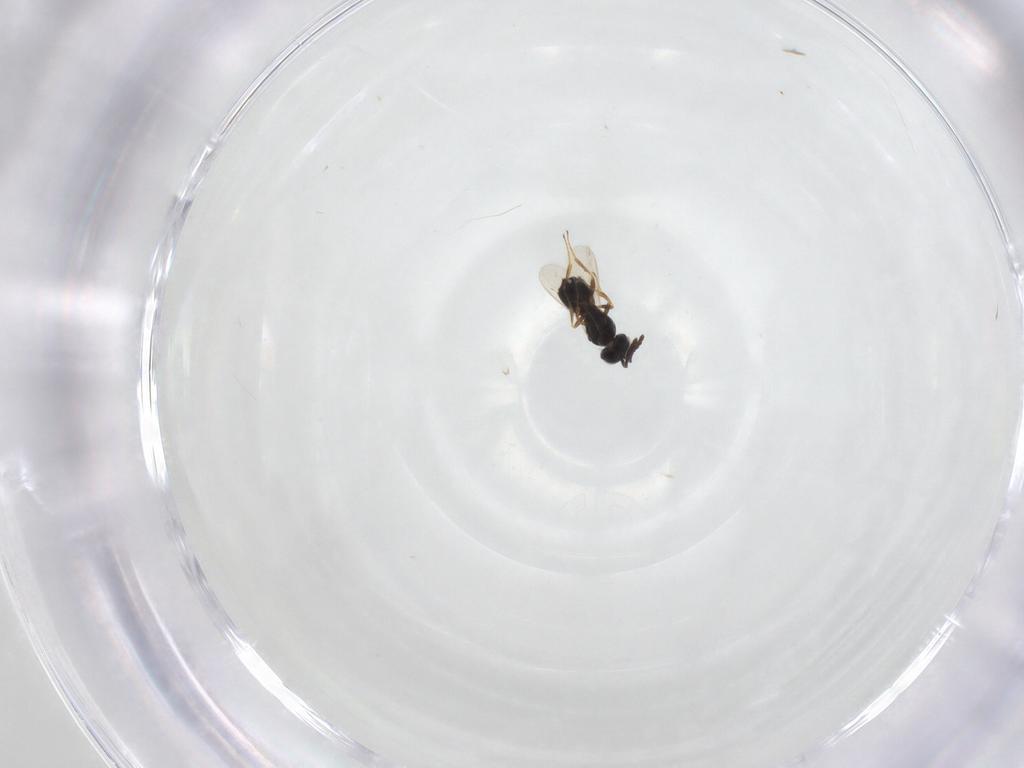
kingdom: Animalia
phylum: Arthropoda
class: Insecta
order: Hymenoptera
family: Scelionidae
